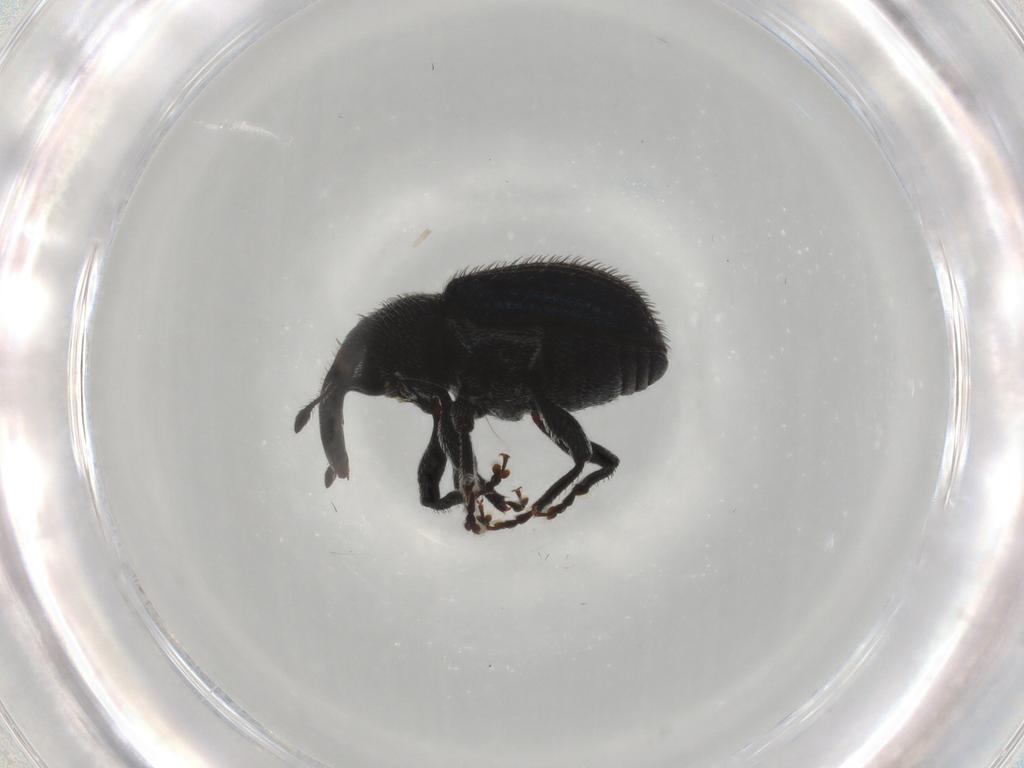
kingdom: Animalia
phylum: Arthropoda
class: Insecta
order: Coleoptera
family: Curculionidae
